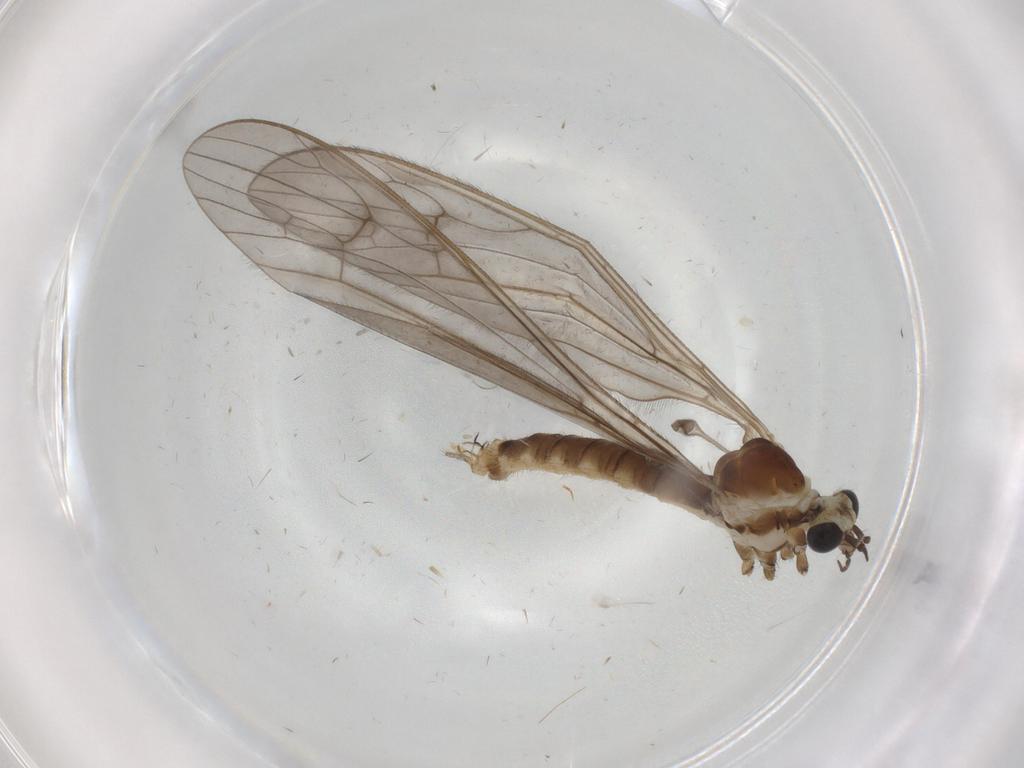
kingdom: Animalia
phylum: Arthropoda
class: Insecta
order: Diptera
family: Limoniidae
